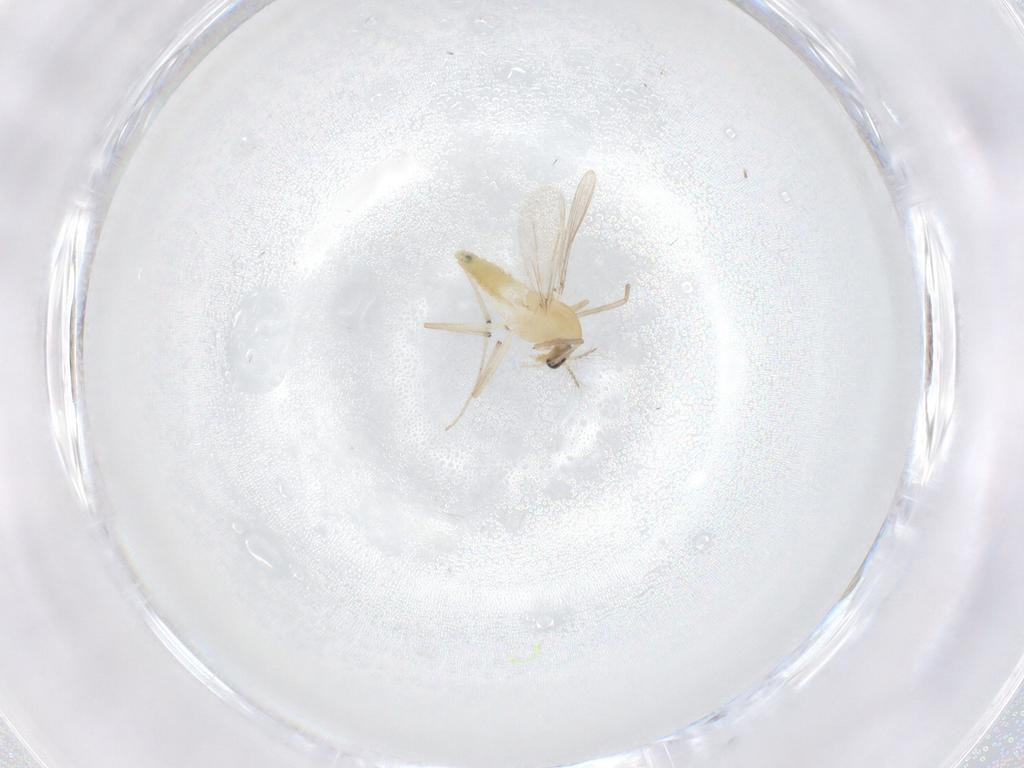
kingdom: Animalia
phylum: Arthropoda
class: Insecta
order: Diptera
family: Chironomidae
